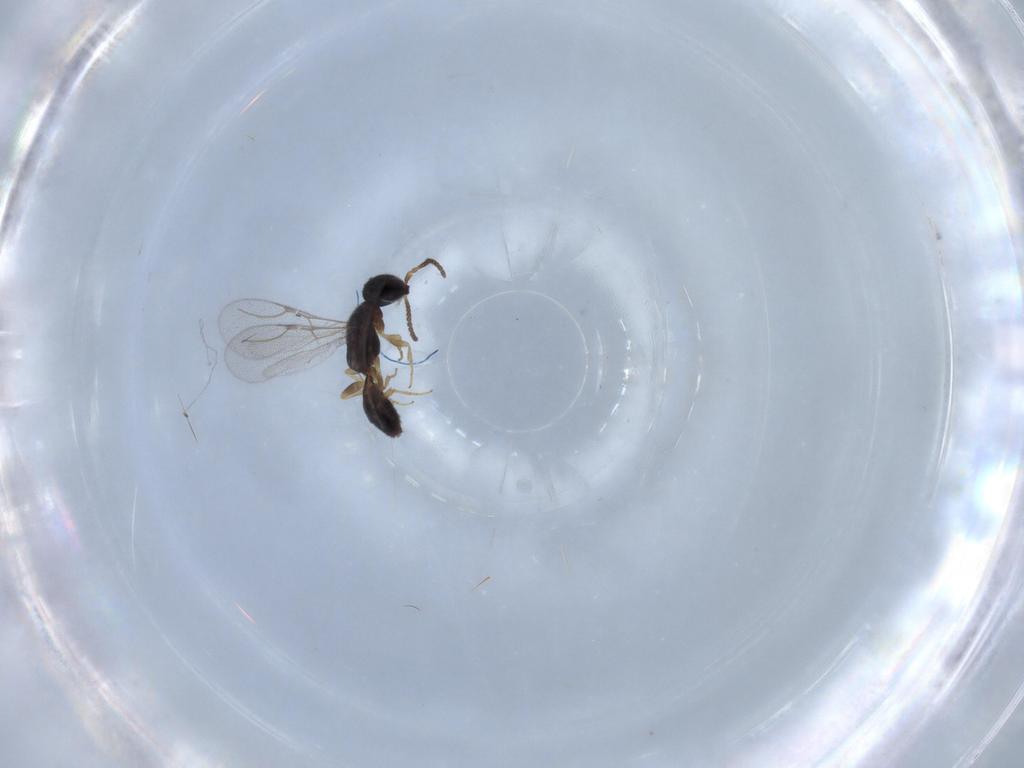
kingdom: Animalia
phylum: Arthropoda
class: Insecta
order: Hymenoptera
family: Bethylidae
